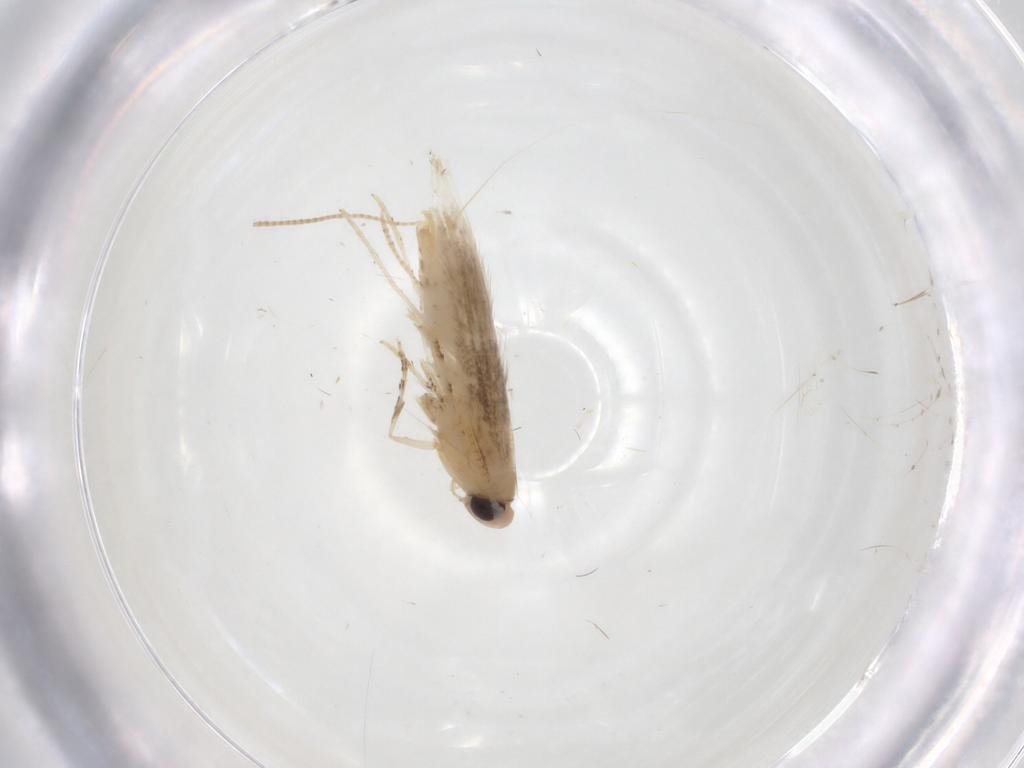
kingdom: Animalia
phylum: Arthropoda
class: Insecta
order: Lepidoptera
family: Gracillariidae
